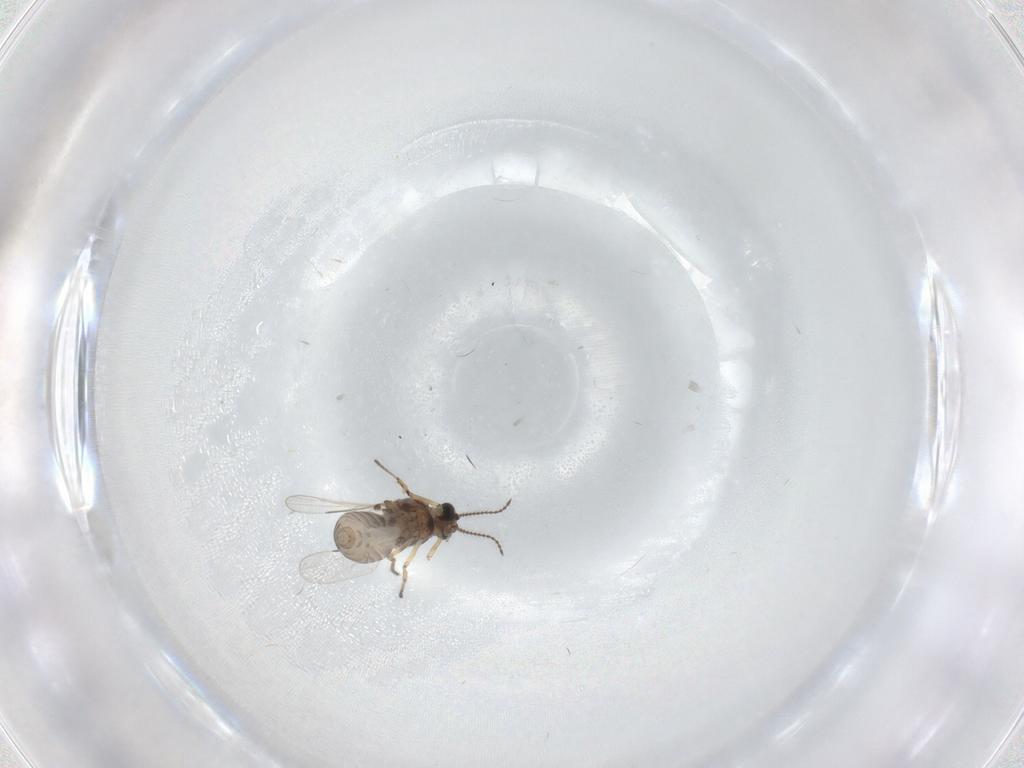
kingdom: Animalia
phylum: Arthropoda
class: Insecta
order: Diptera
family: Ceratopogonidae
